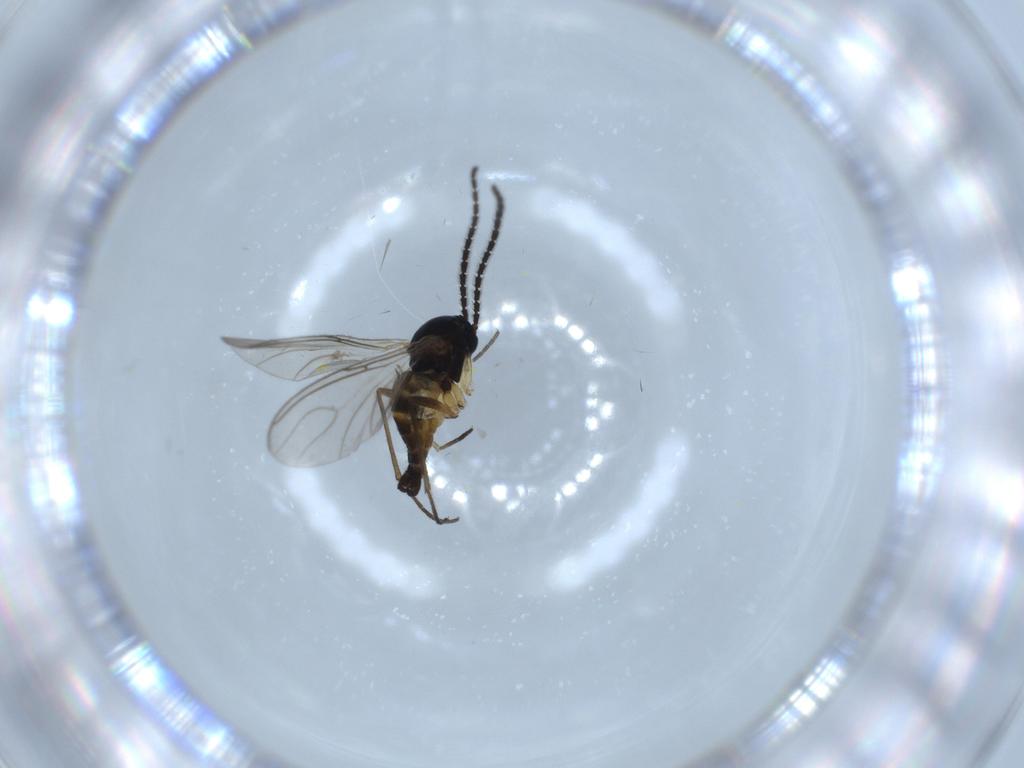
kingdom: Animalia
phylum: Arthropoda
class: Insecta
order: Diptera
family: Sciaridae
